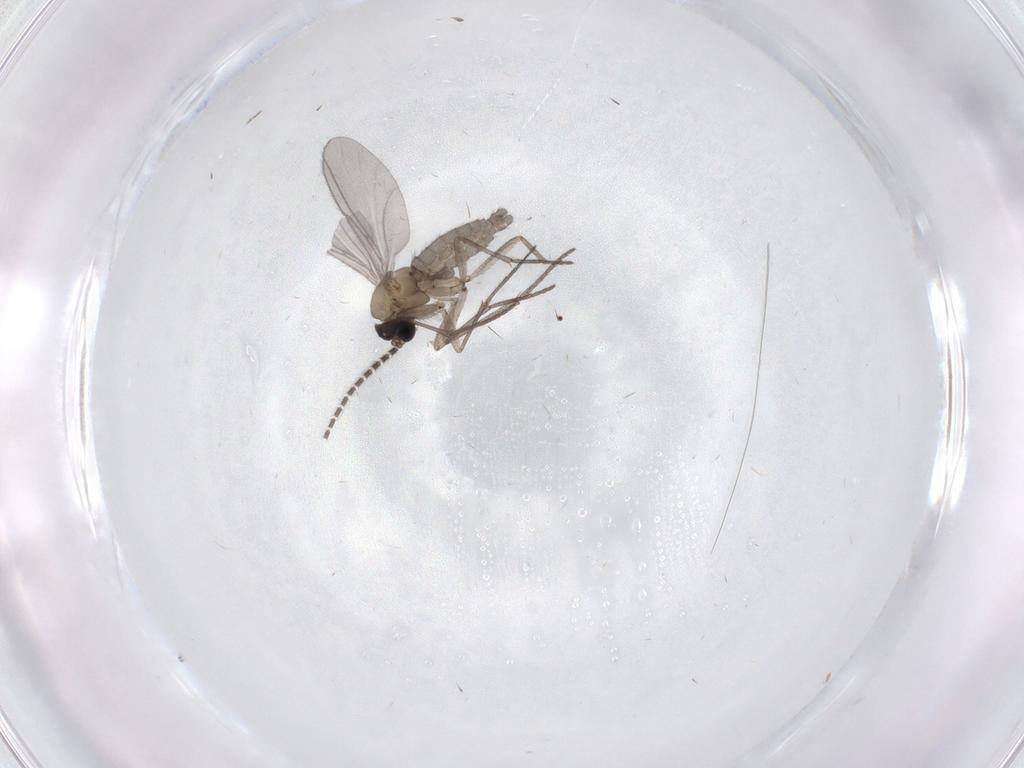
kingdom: Animalia
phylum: Arthropoda
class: Insecta
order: Diptera
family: Sciaridae
